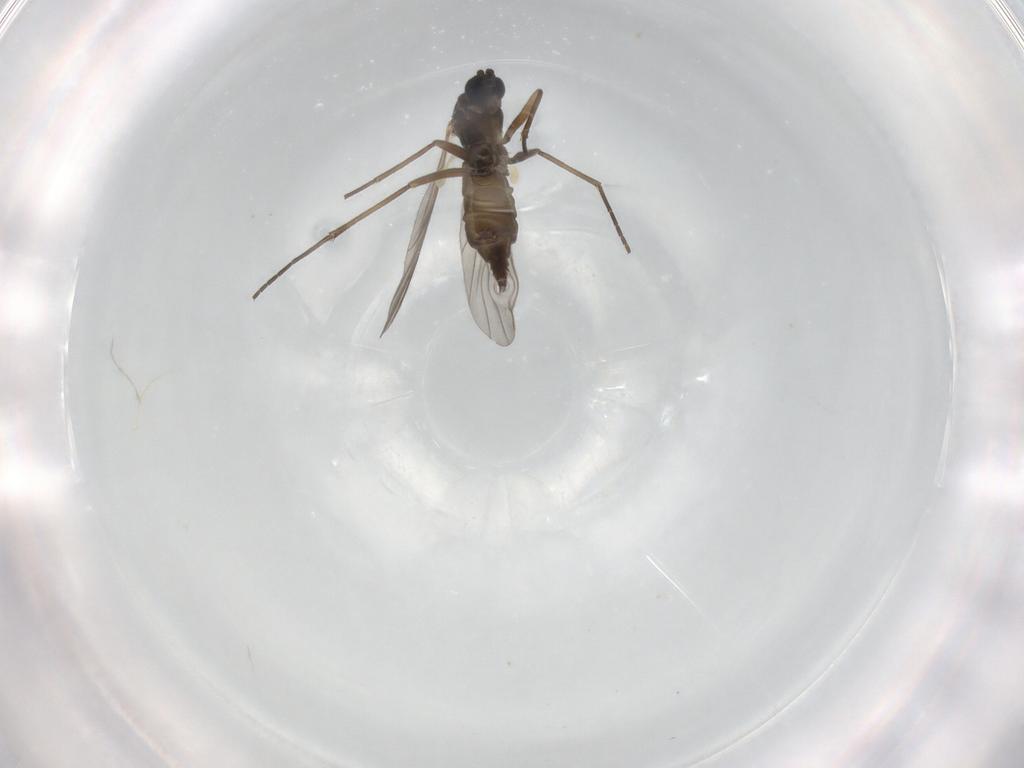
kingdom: Animalia
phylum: Arthropoda
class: Insecta
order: Diptera
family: Sciaridae
